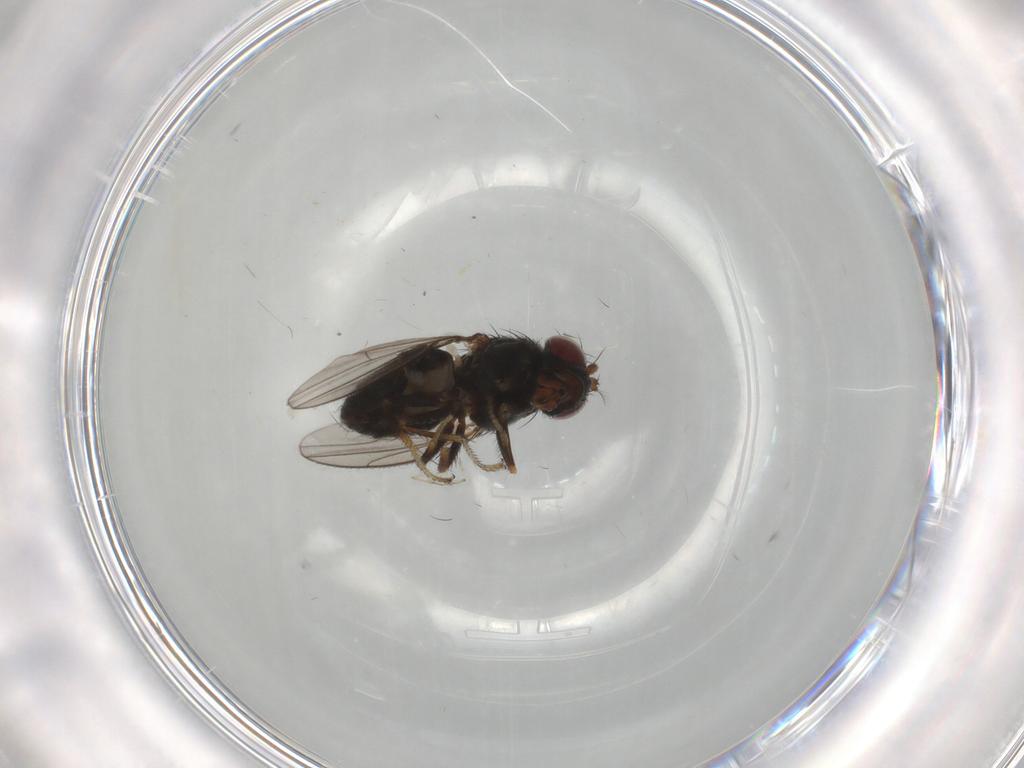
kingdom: Animalia
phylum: Arthropoda
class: Insecta
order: Diptera
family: Ephydridae
